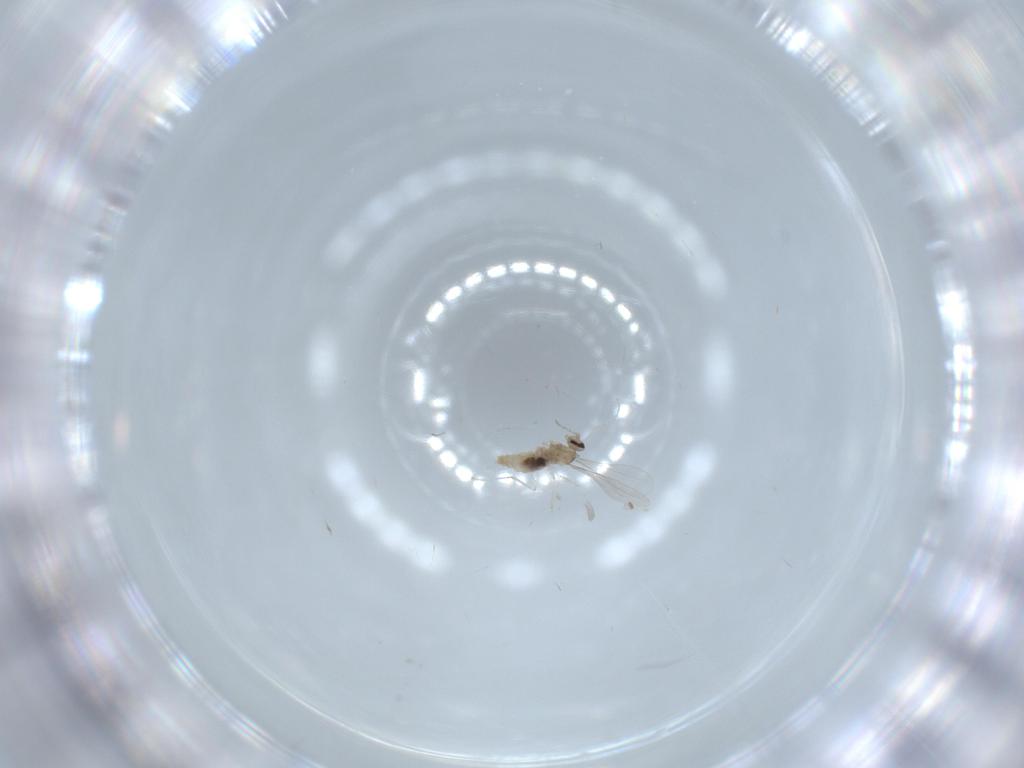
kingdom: Animalia
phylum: Arthropoda
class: Insecta
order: Diptera
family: Cecidomyiidae
